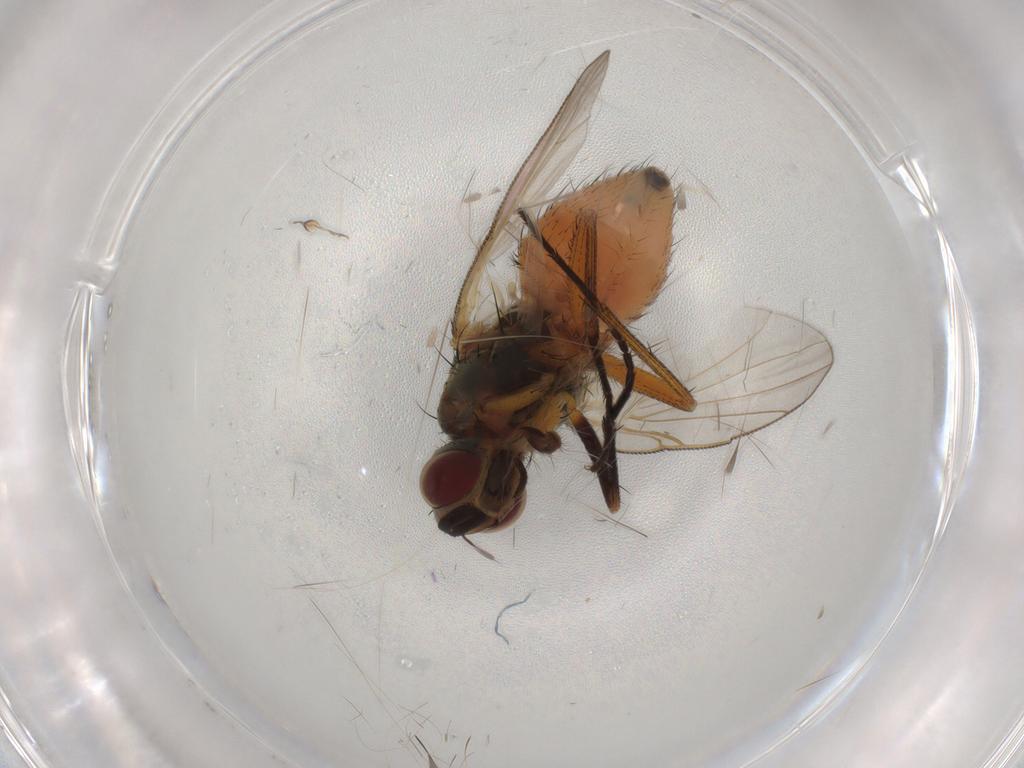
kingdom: Animalia
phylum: Arthropoda
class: Insecta
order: Diptera
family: Muscidae
